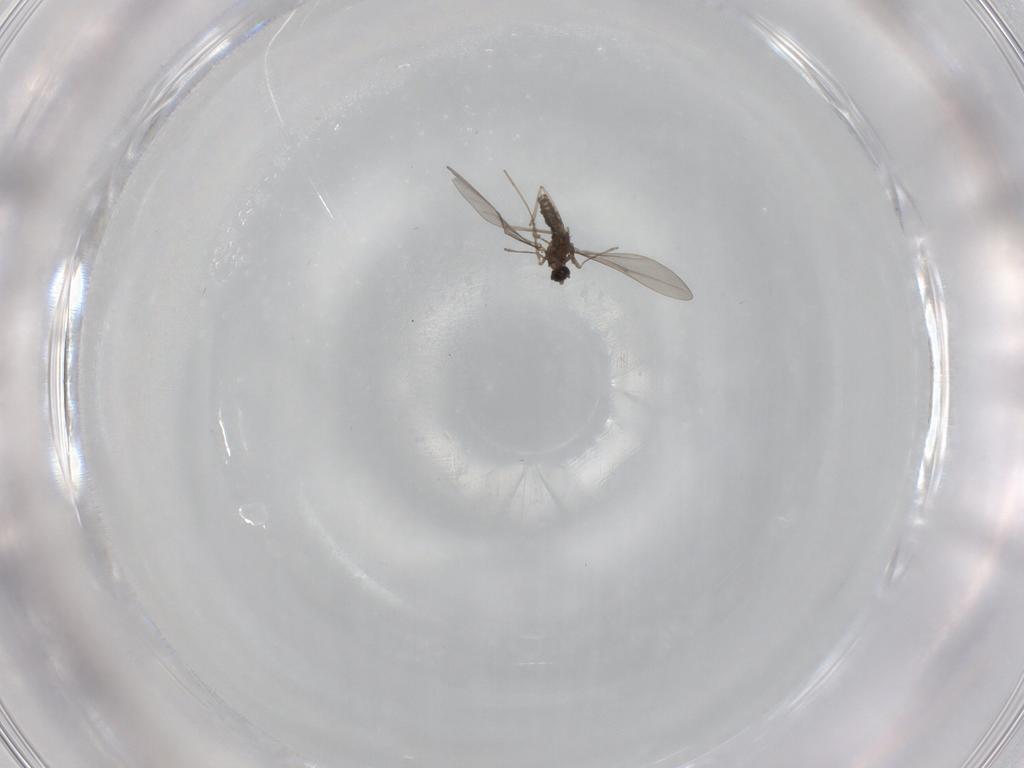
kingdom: Animalia
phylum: Arthropoda
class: Insecta
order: Diptera
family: Cecidomyiidae
